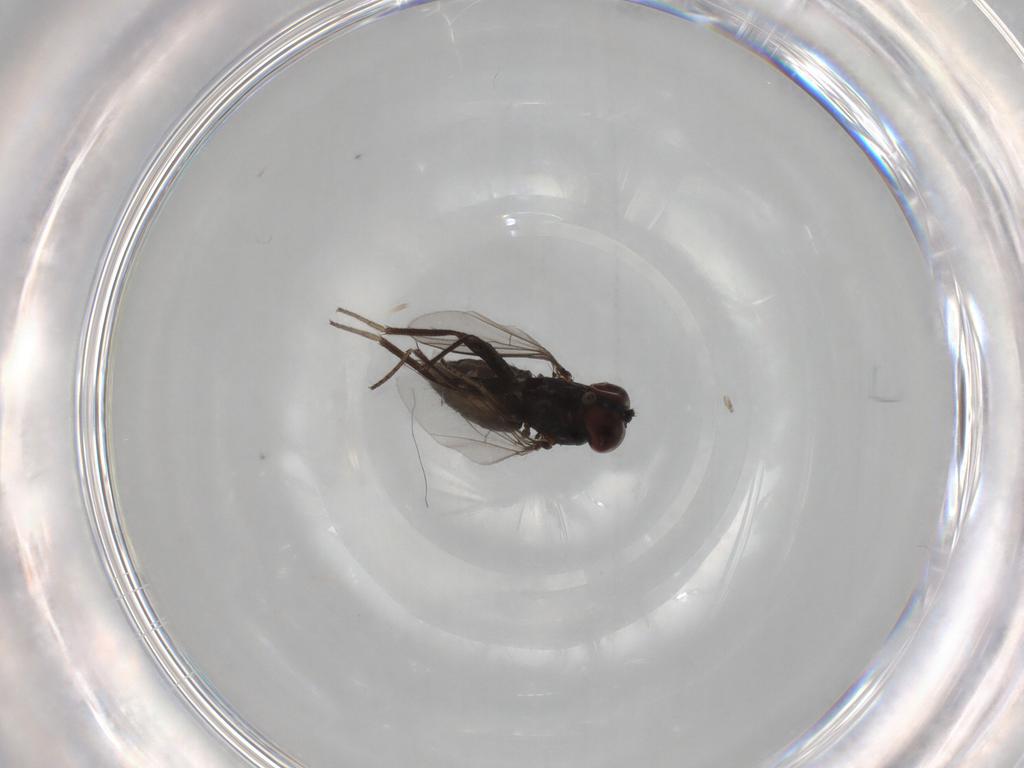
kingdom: Animalia
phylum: Arthropoda
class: Insecta
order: Diptera
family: Dolichopodidae
